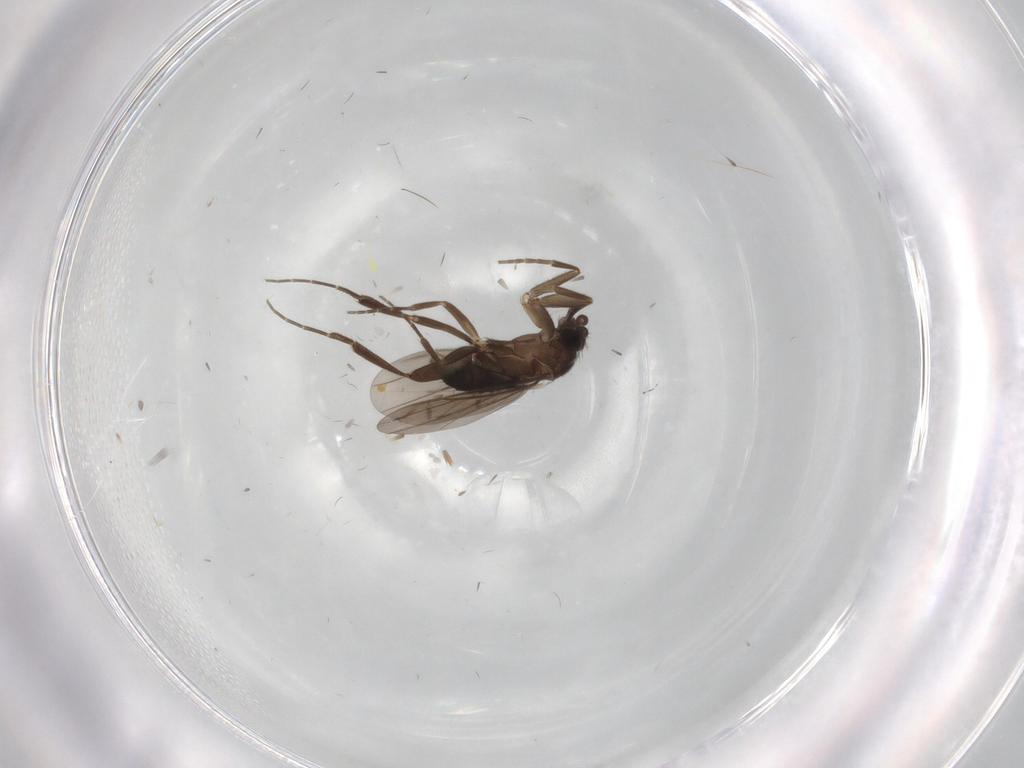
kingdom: Animalia
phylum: Arthropoda
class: Insecta
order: Diptera
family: Chironomidae
